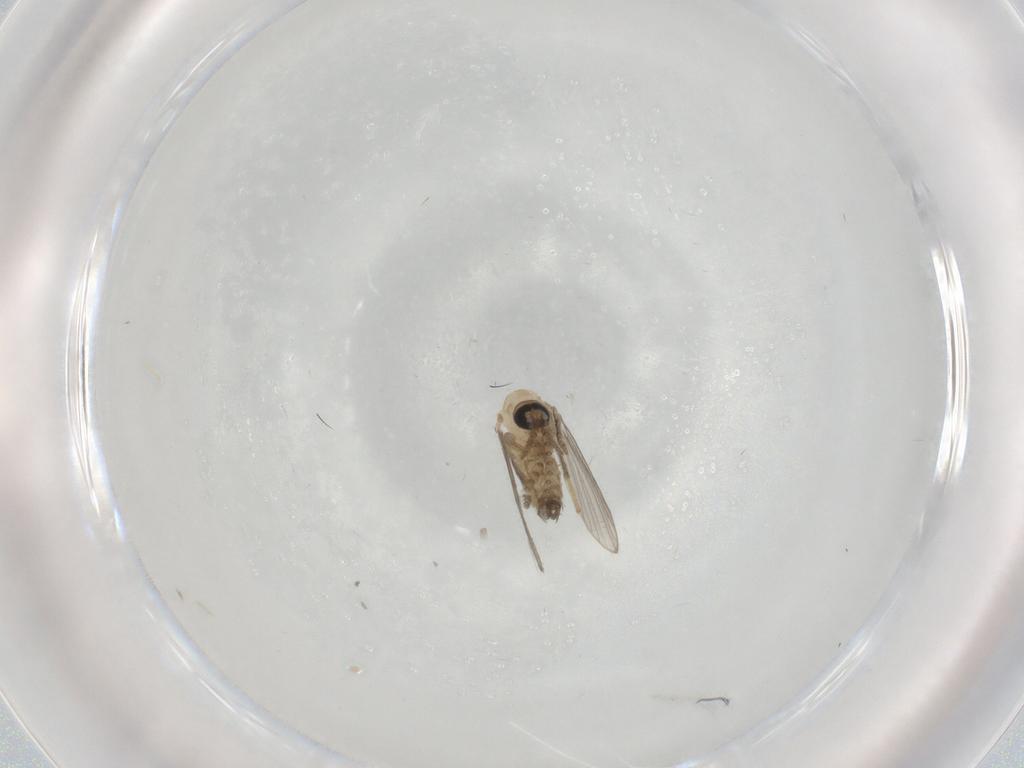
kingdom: Animalia
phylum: Arthropoda
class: Insecta
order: Diptera
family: Psychodidae
